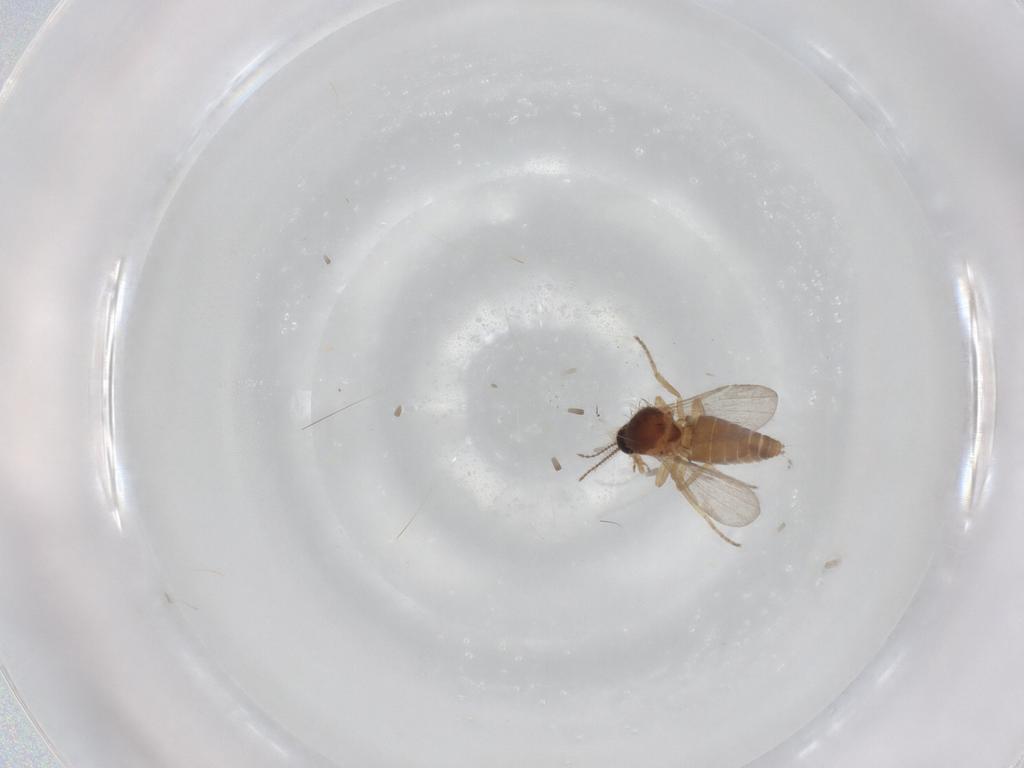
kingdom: Animalia
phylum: Arthropoda
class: Insecta
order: Diptera
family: Ceratopogonidae
